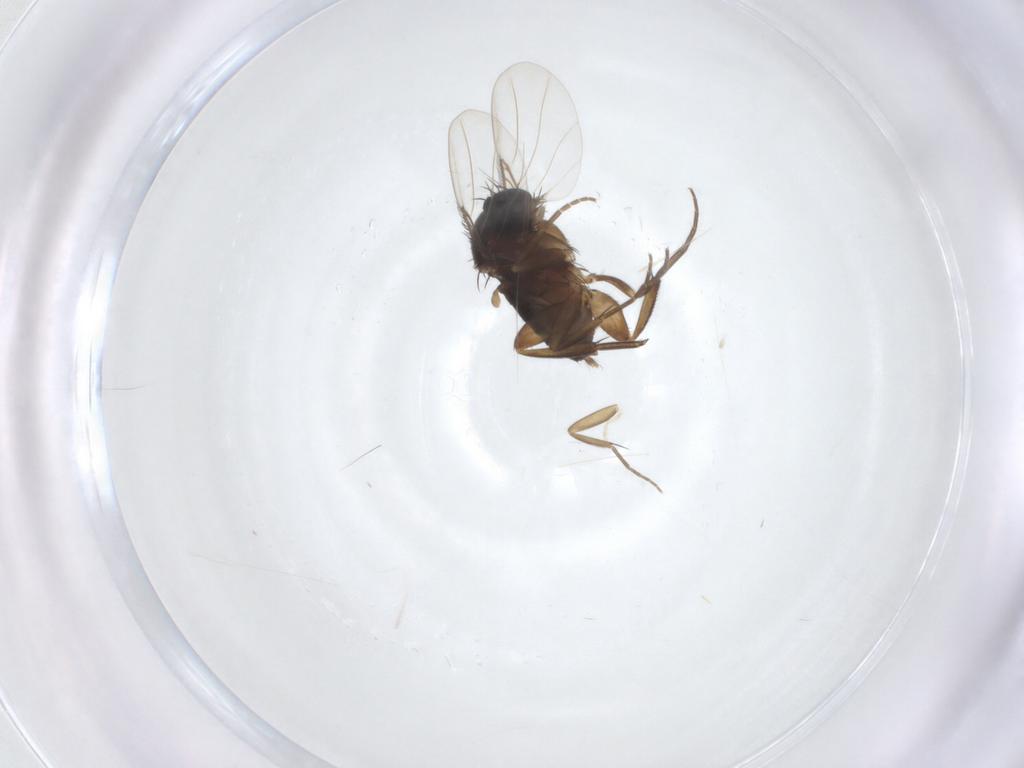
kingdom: Animalia
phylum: Arthropoda
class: Insecta
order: Diptera
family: Phoridae
